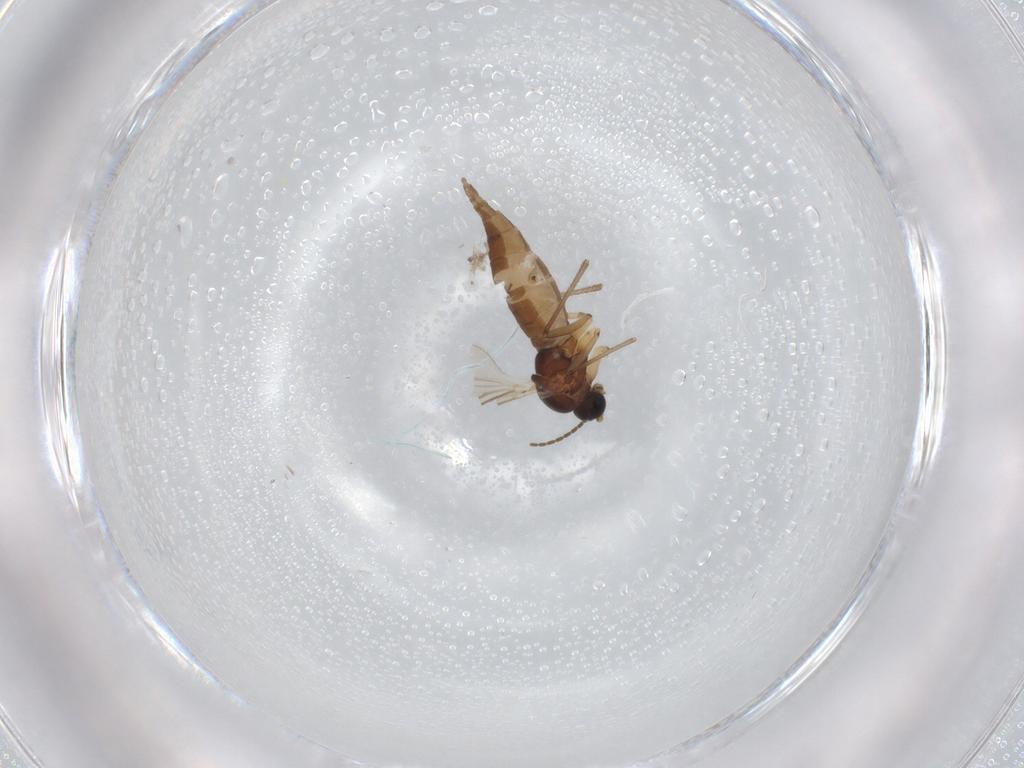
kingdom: Animalia
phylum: Arthropoda
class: Insecta
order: Diptera
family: Sciaridae
